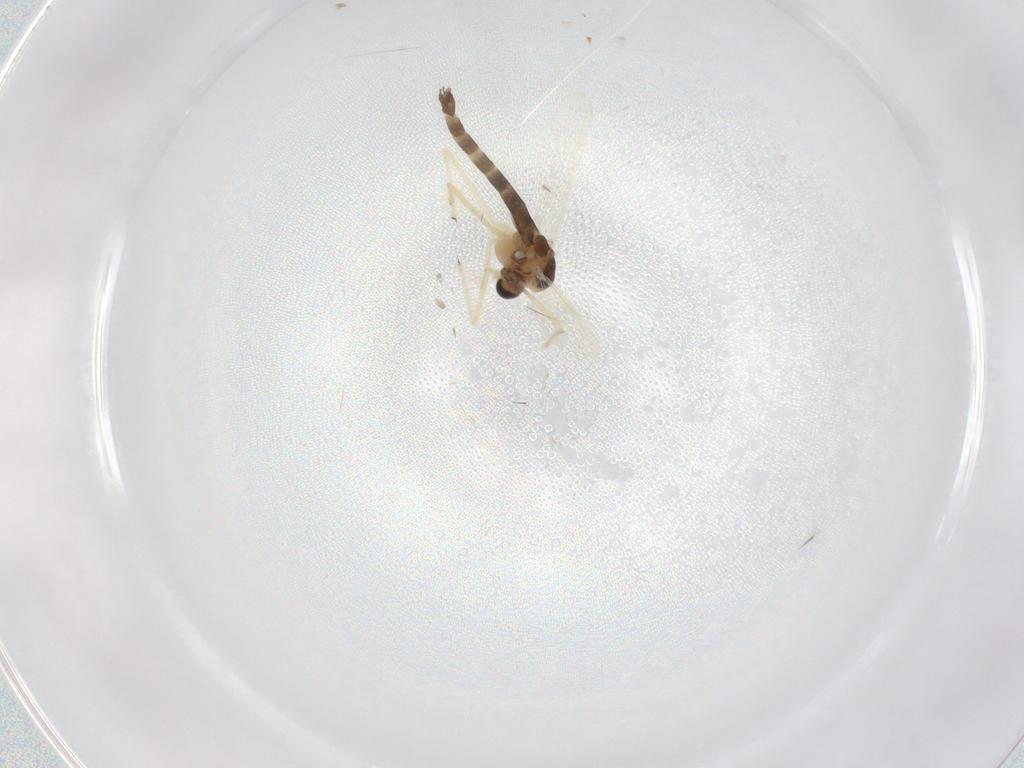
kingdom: Animalia
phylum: Arthropoda
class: Insecta
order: Diptera
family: Chironomidae
